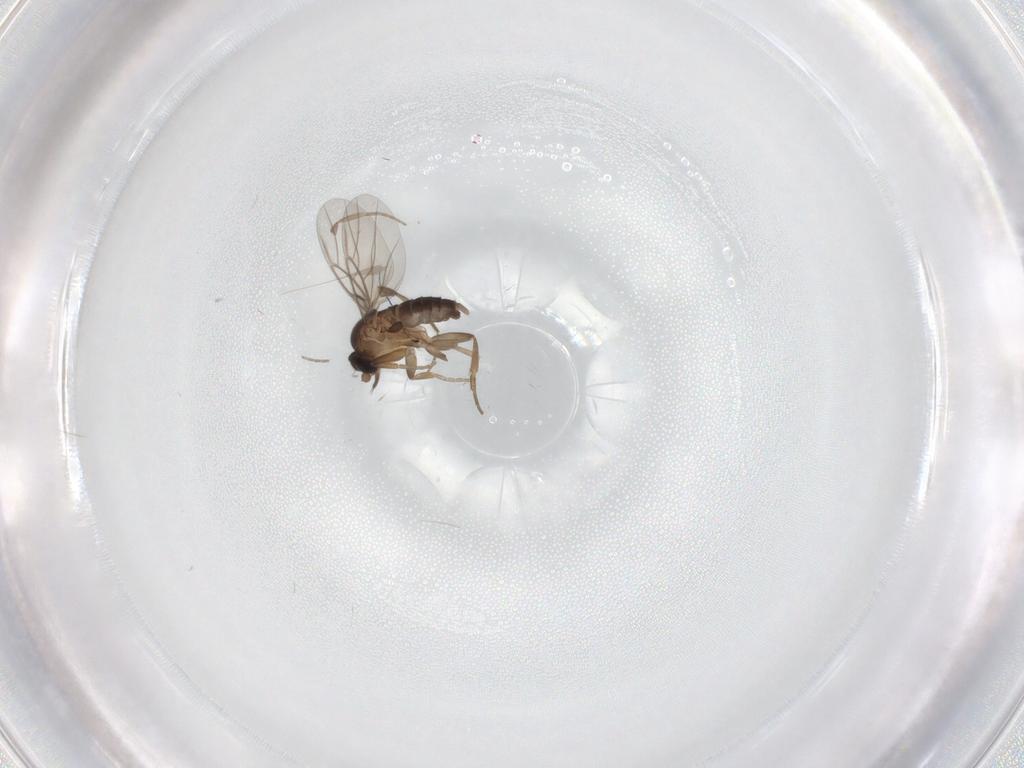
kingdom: Animalia
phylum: Arthropoda
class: Insecta
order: Diptera
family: Phoridae
